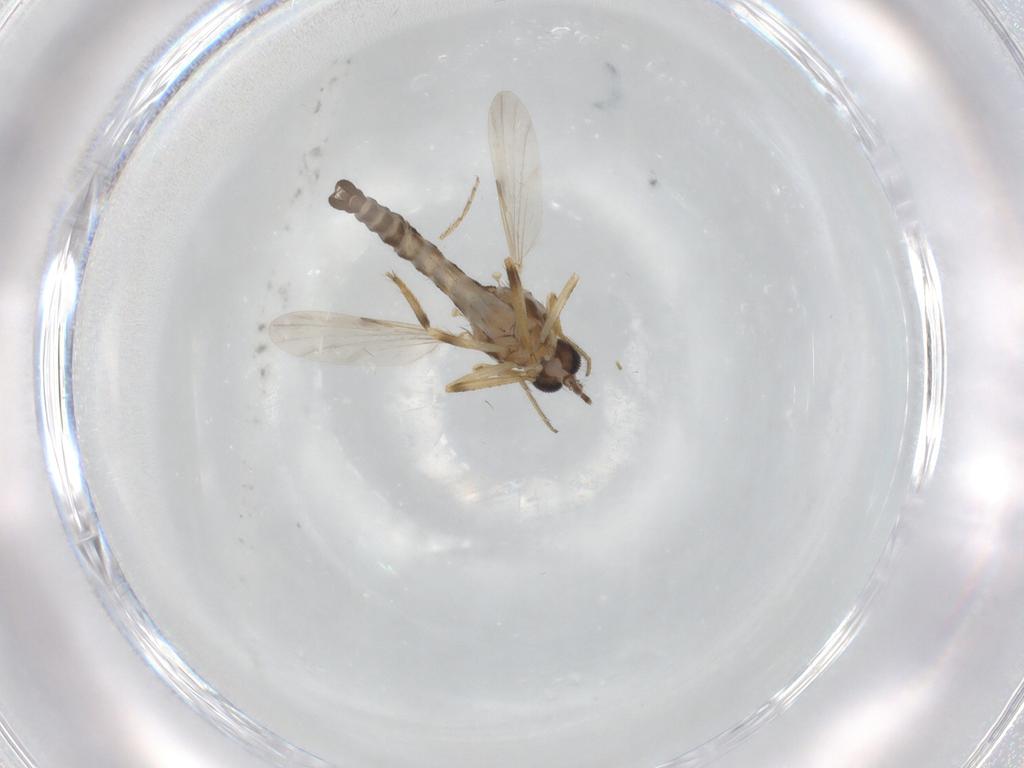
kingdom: Animalia
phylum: Arthropoda
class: Insecta
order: Diptera
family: Ceratopogonidae
